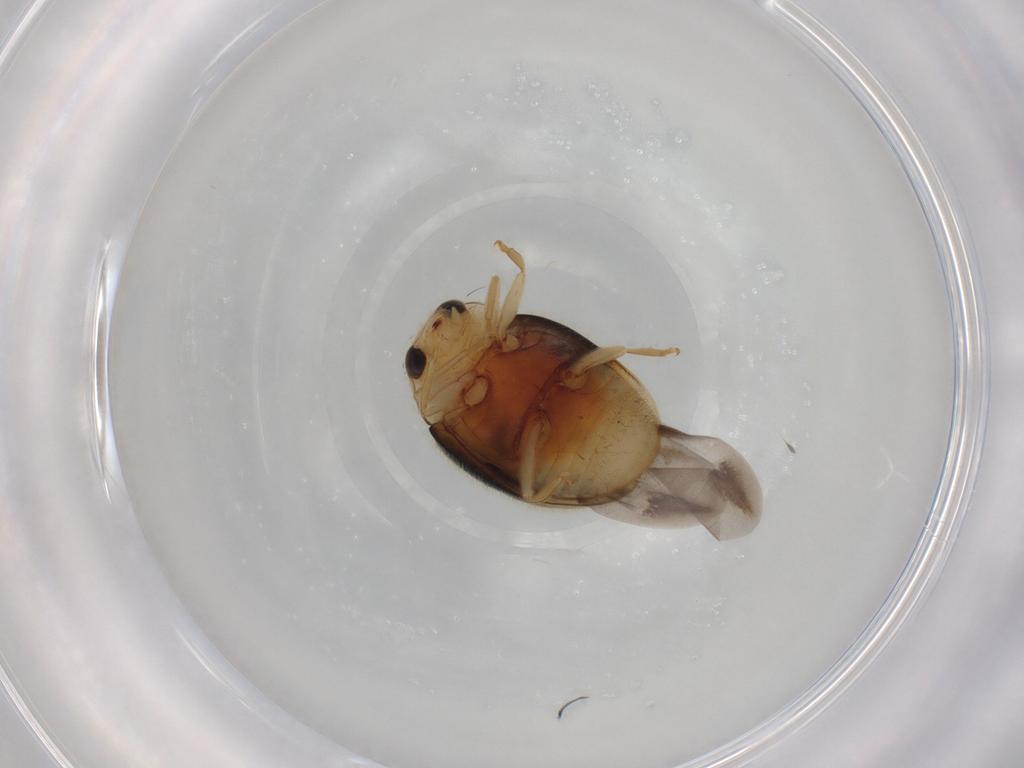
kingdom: Animalia
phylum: Arthropoda
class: Insecta
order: Coleoptera
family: Coccinellidae
